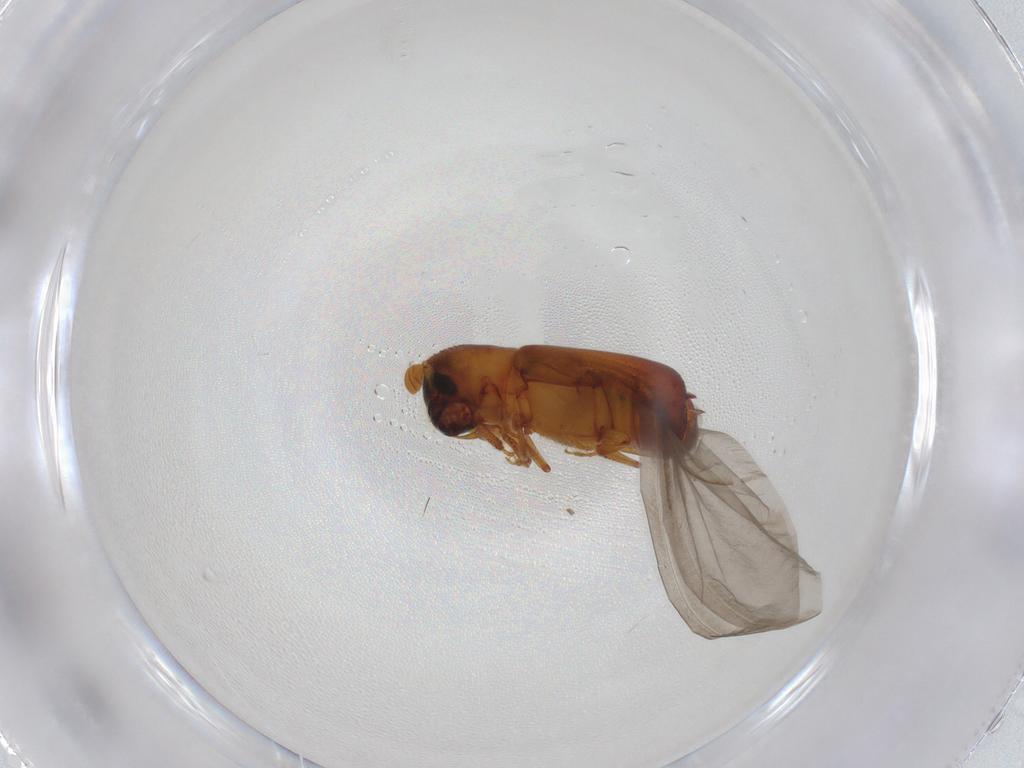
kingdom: Animalia
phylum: Arthropoda
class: Insecta
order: Coleoptera
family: Curculionidae
